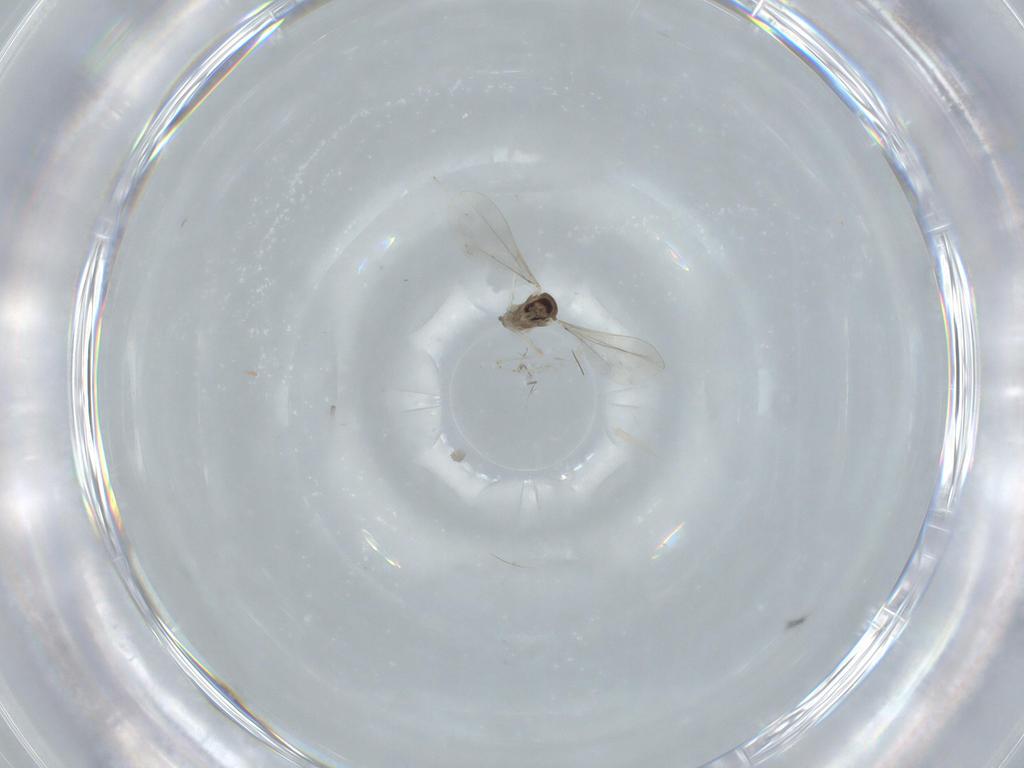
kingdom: Animalia
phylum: Arthropoda
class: Insecta
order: Diptera
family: Cecidomyiidae
